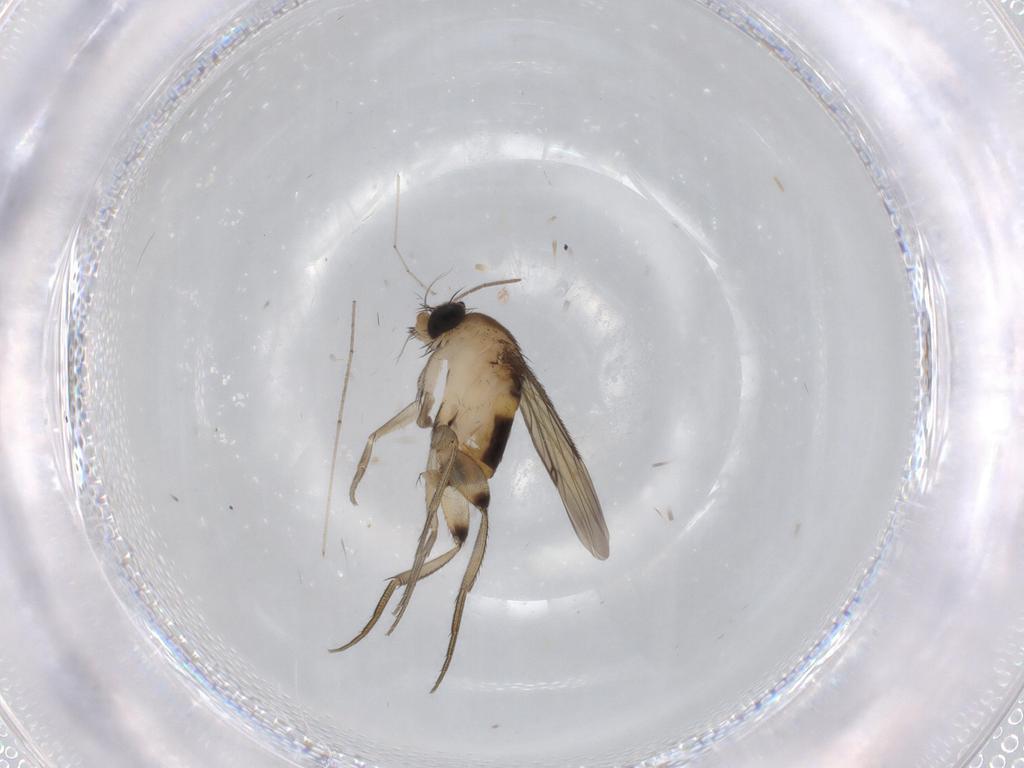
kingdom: Animalia
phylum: Arthropoda
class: Insecta
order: Diptera
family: Phoridae
